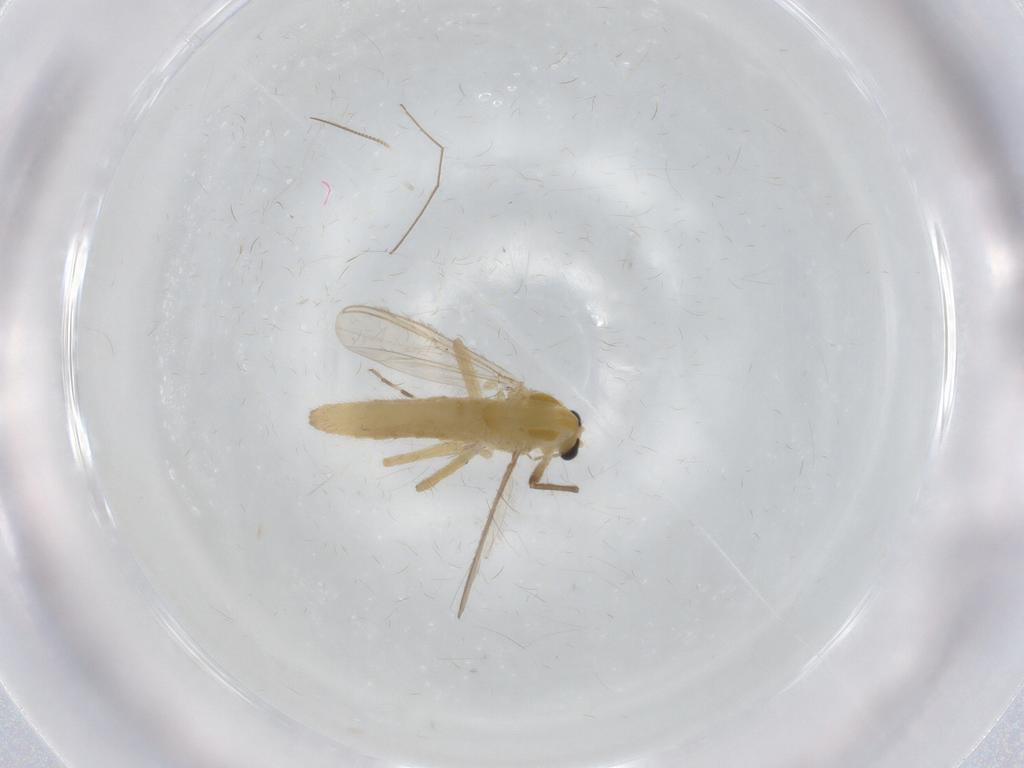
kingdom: Animalia
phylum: Arthropoda
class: Insecta
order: Diptera
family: Chironomidae
